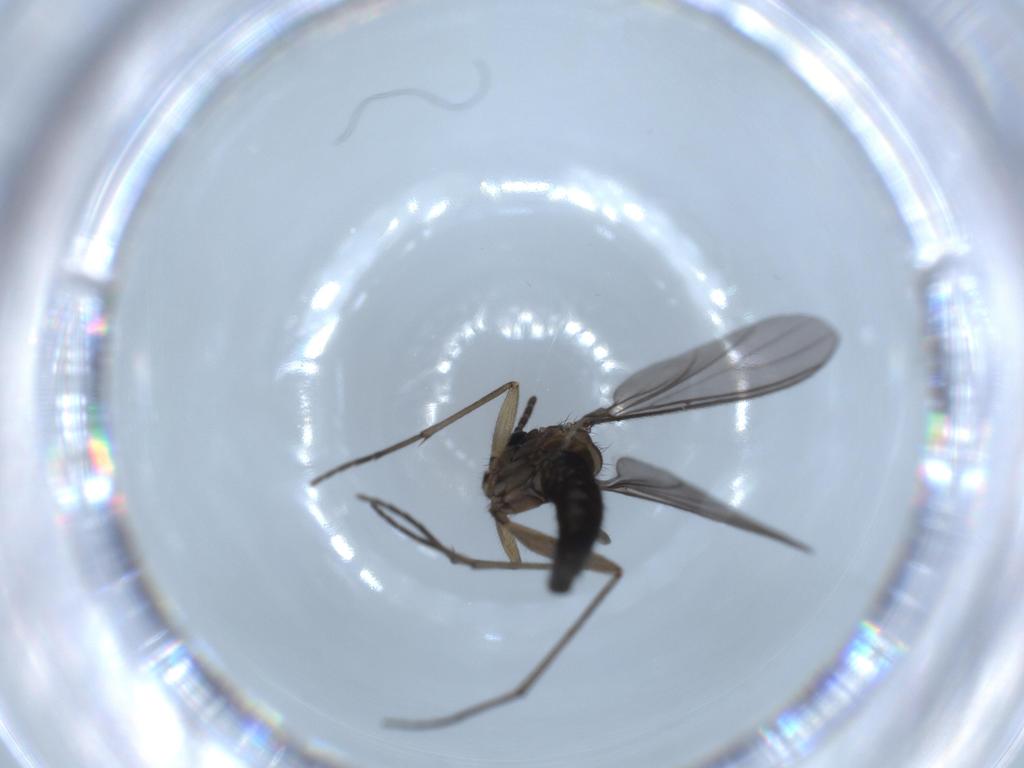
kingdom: Animalia
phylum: Arthropoda
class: Insecta
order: Diptera
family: Sciaridae
